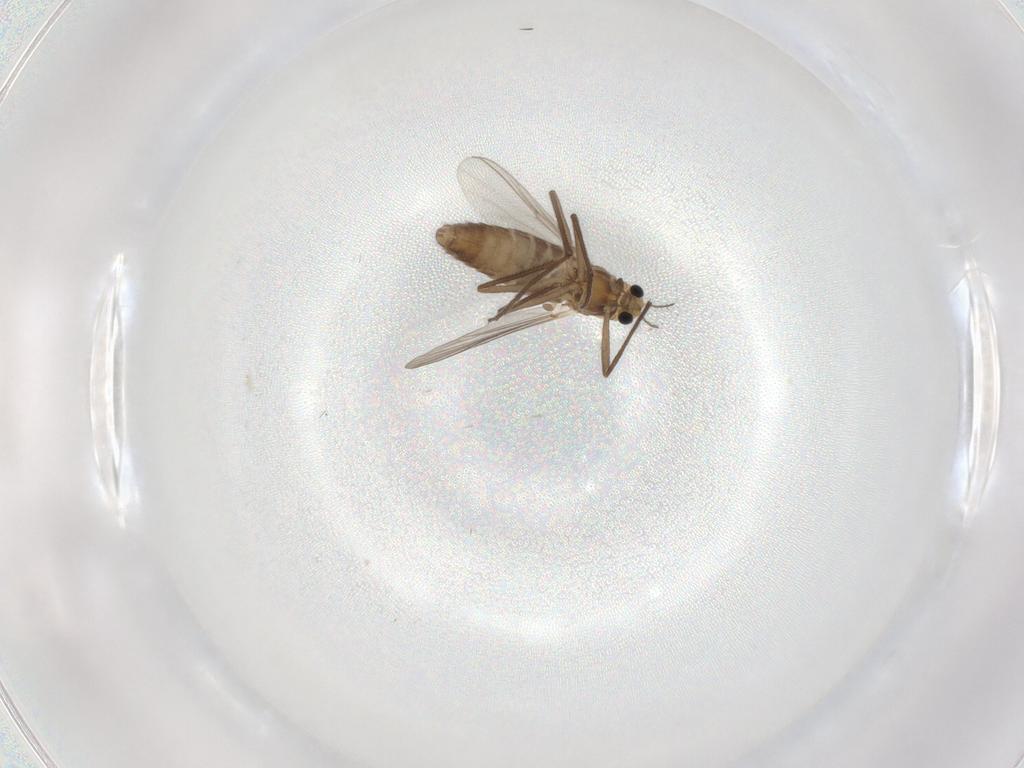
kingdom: Animalia
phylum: Arthropoda
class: Insecta
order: Diptera
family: Chironomidae
